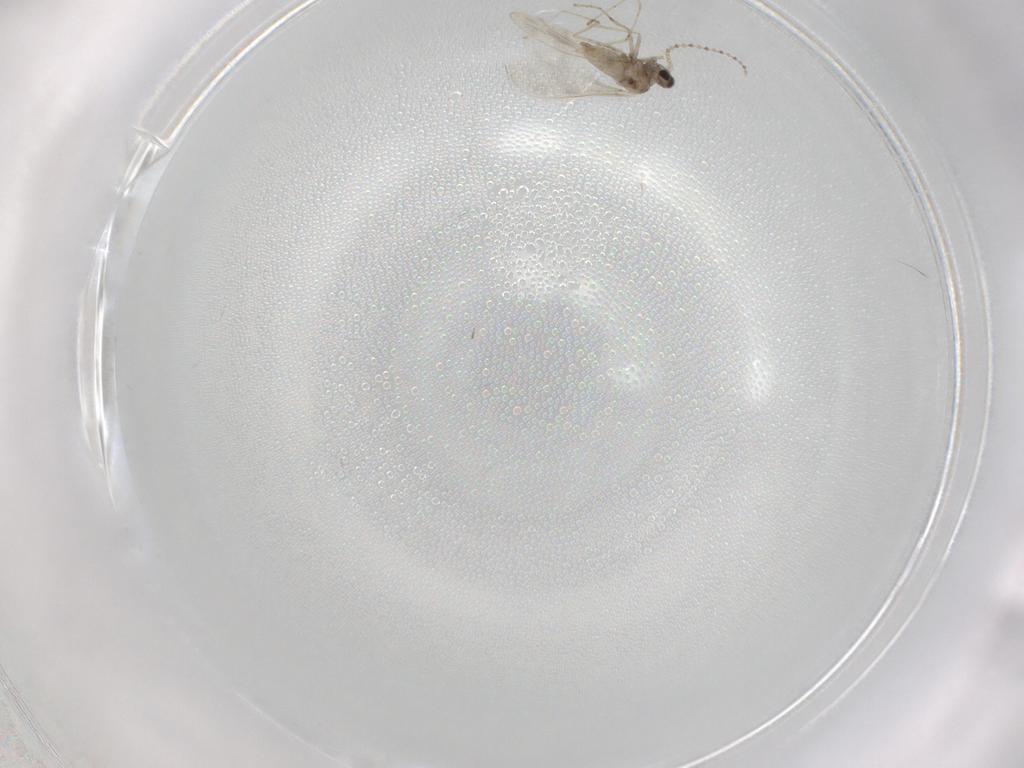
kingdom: Animalia
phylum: Arthropoda
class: Insecta
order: Diptera
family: Cecidomyiidae
